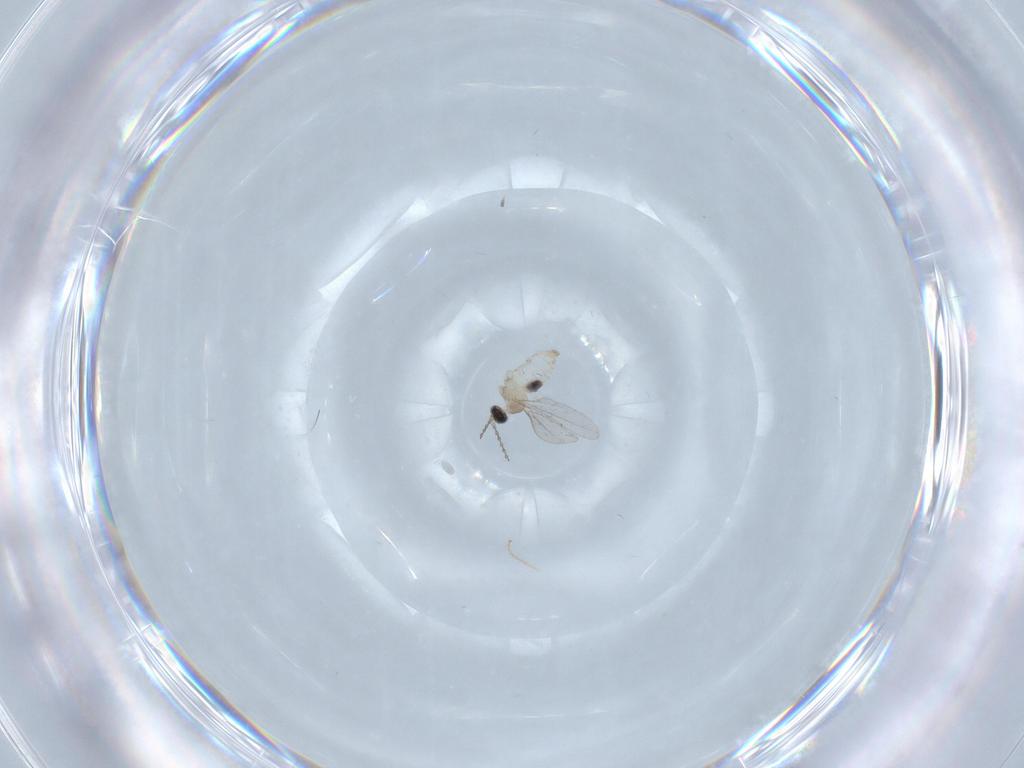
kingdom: Animalia
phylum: Arthropoda
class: Insecta
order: Diptera
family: Cecidomyiidae
